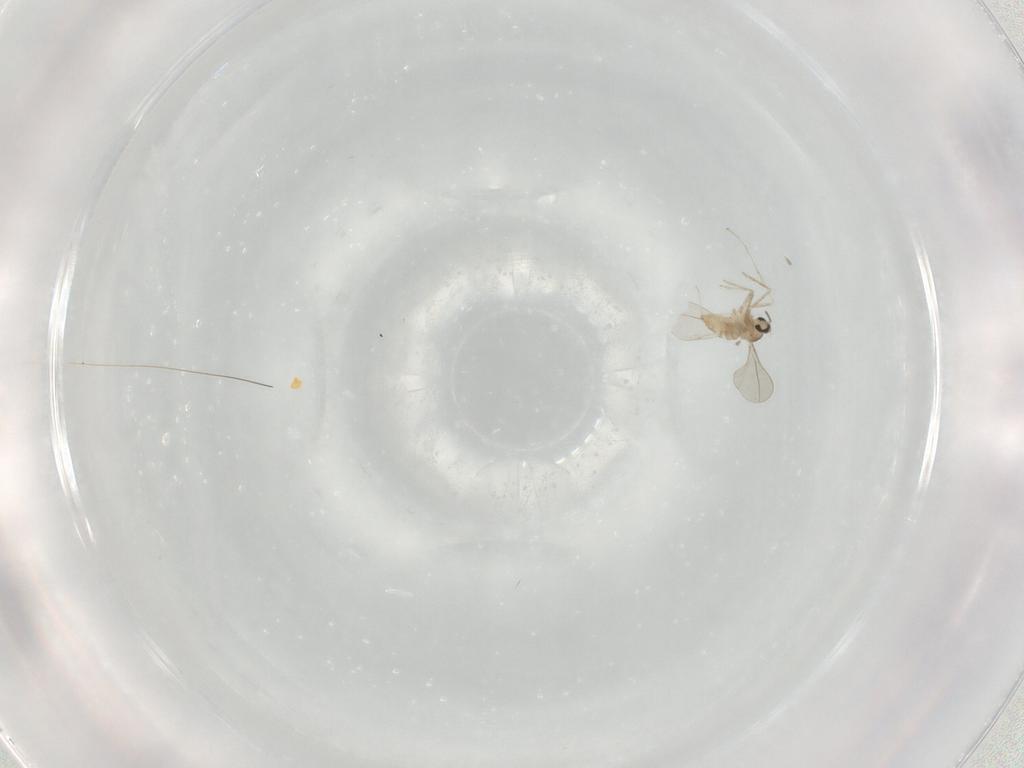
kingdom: Animalia
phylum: Arthropoda
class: Insecta
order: Diptera
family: Cecidomyiidae
